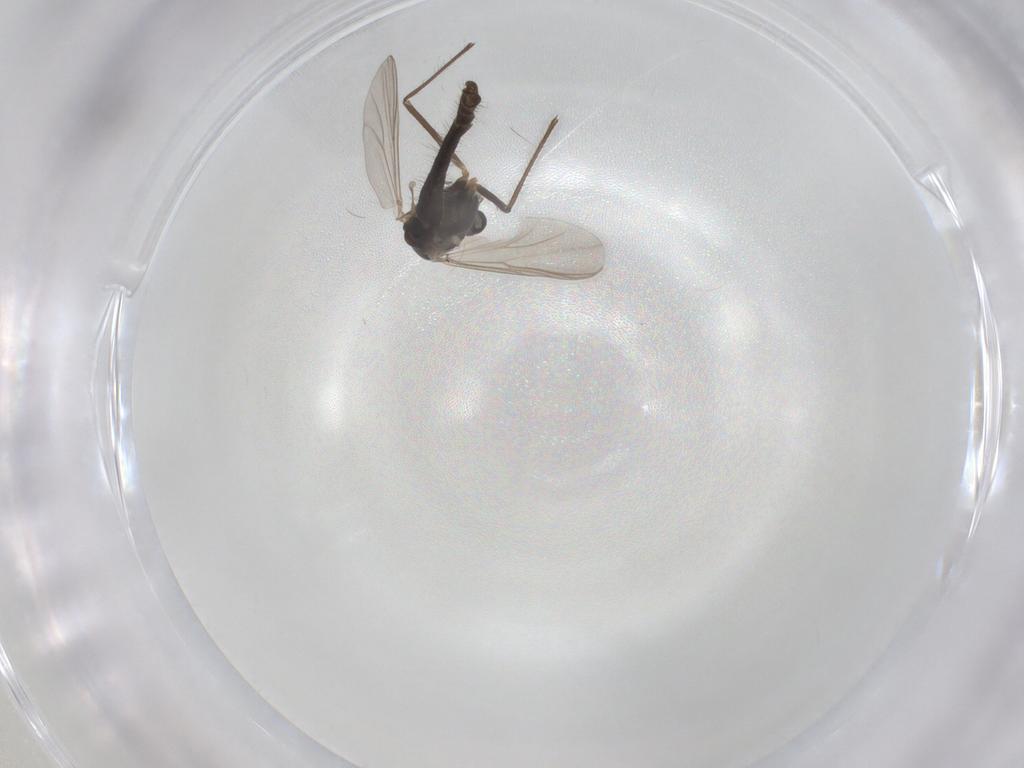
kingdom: Animalia
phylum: Arthropoda
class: Insecta
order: Diptera
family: Chironomidae
